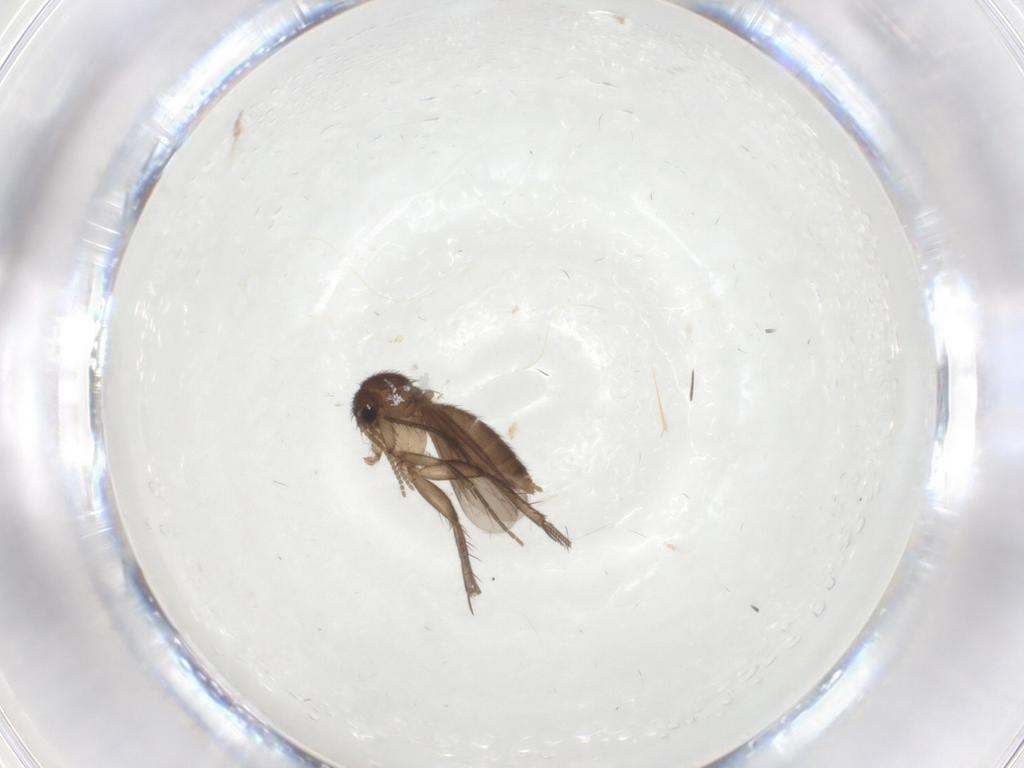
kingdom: Animalia
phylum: Arthropoda
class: Insecta
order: Diptera
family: Mycetophilidae
